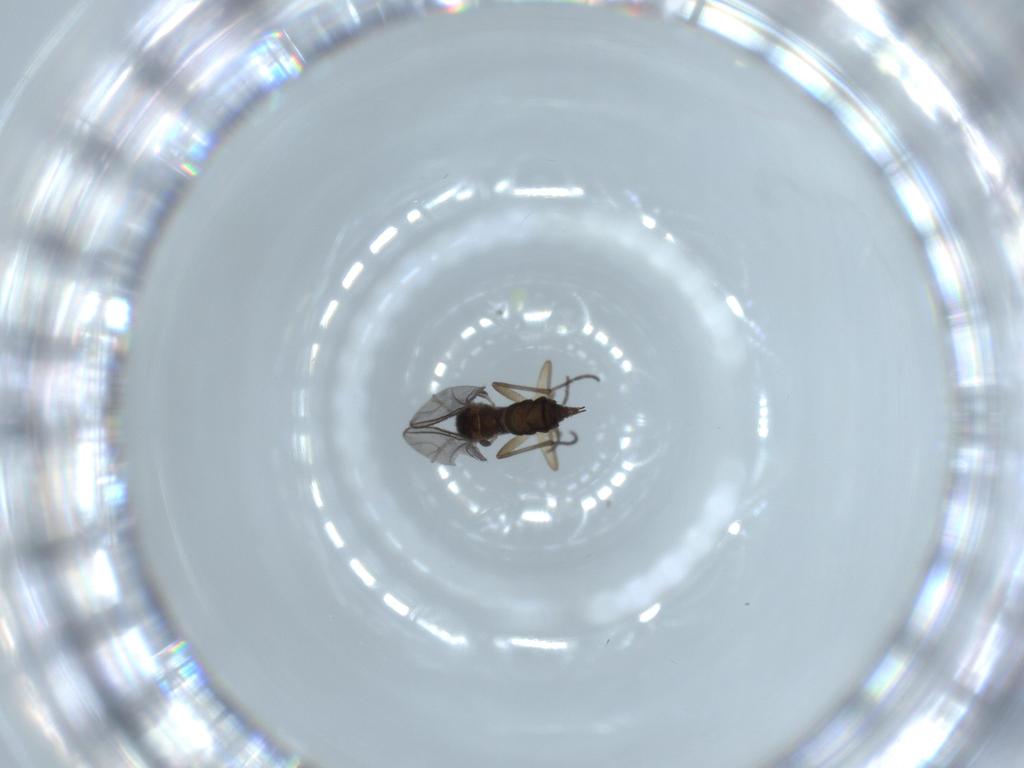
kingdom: Animalia
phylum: Arthropoda
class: Insecta
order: Diptera
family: Sciaridae
